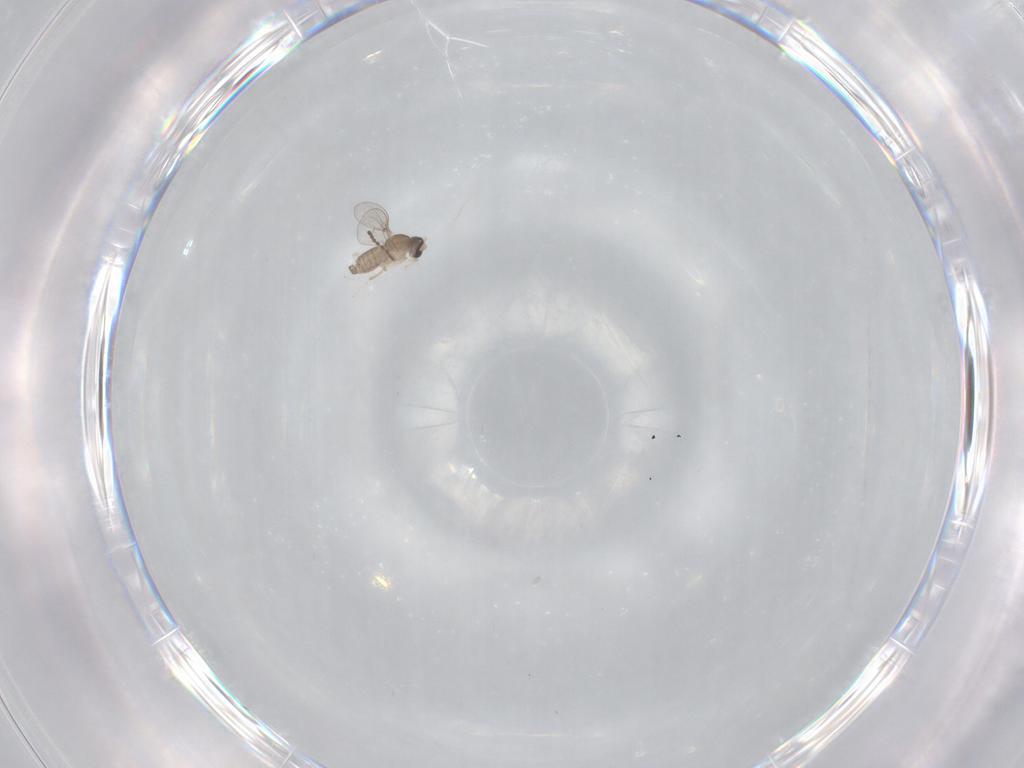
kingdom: Animalia
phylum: Arthropoda
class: Insecta
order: Diptera
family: Cecidomyiidae
